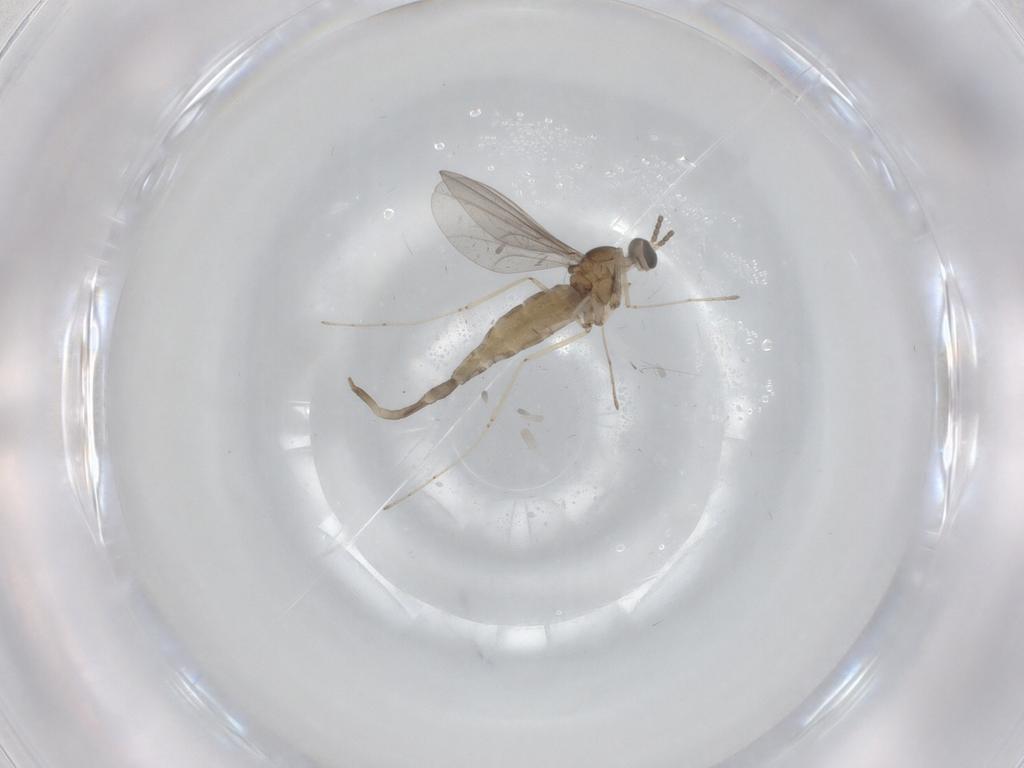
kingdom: Animalia
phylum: Arthropoda
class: Insecta
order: Diptera
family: Cecidomyiidae
